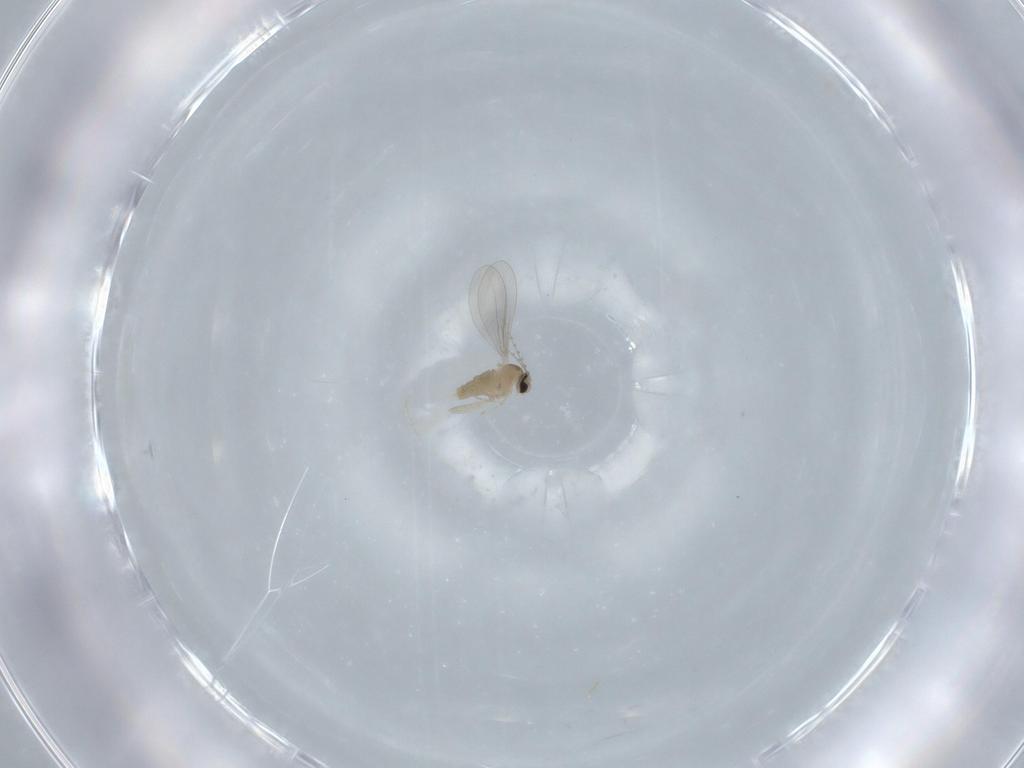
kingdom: Animalia
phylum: Arthropoda
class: Insecta
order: Diptera
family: Cecidomyiidae
